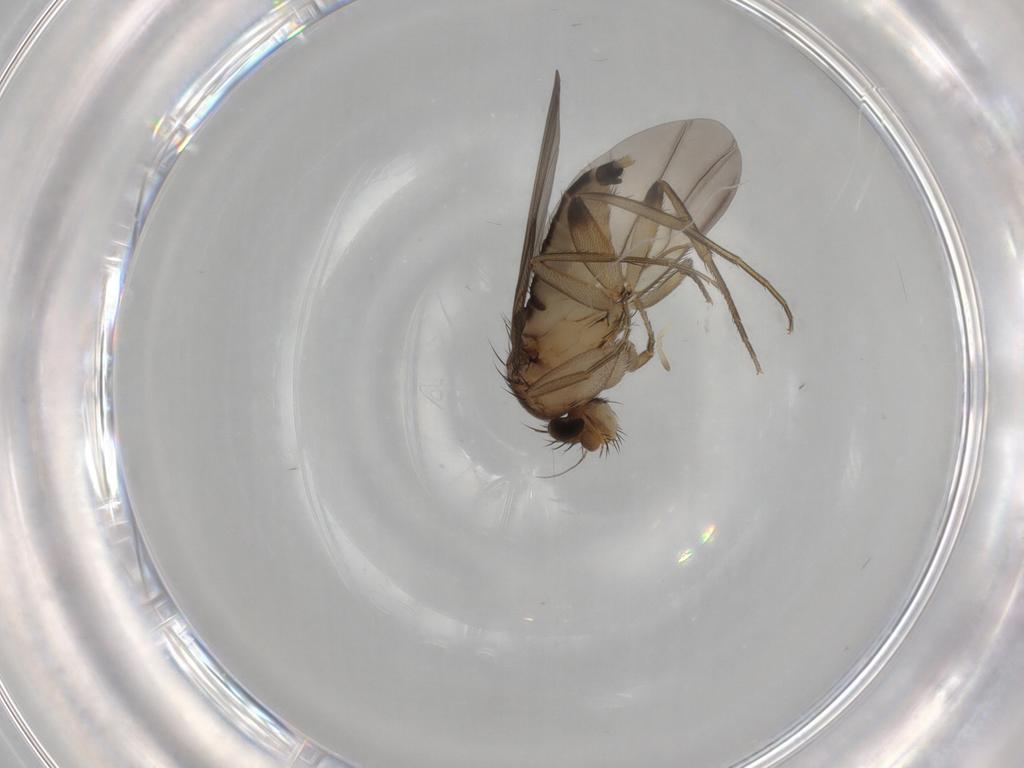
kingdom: Animalia
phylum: Arthropoda
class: Insecta
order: Diptera
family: Phoridae
